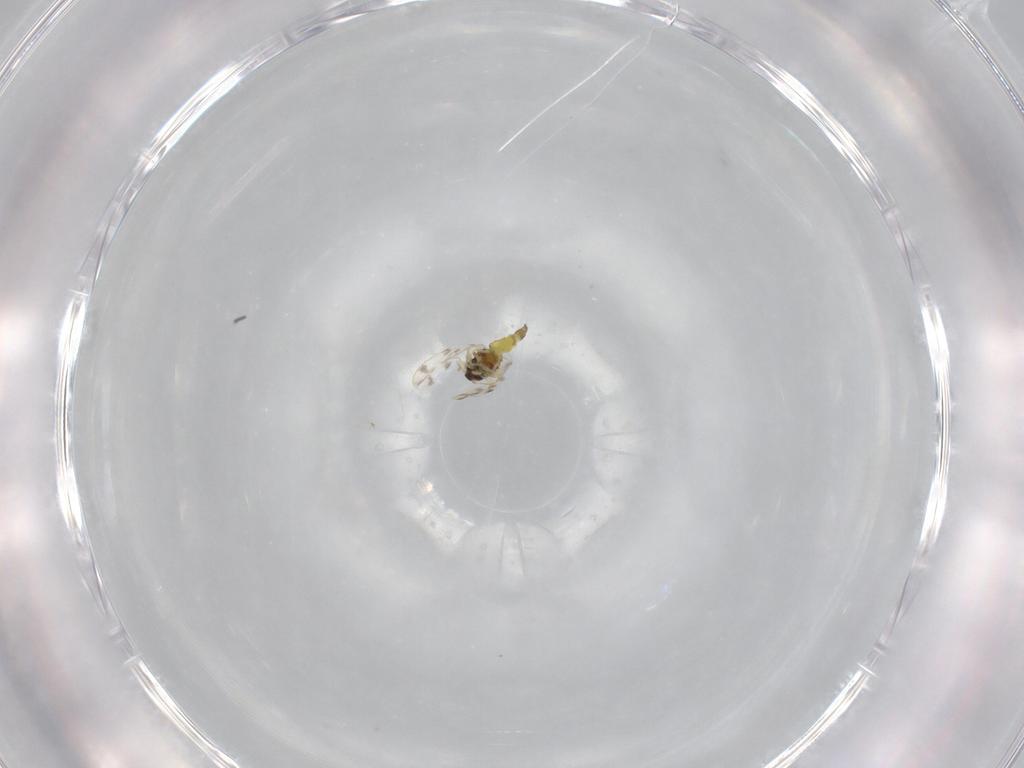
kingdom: Animalia
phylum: Arthropoda
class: Insecta
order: Hemiptera
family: Aleyrodidae
